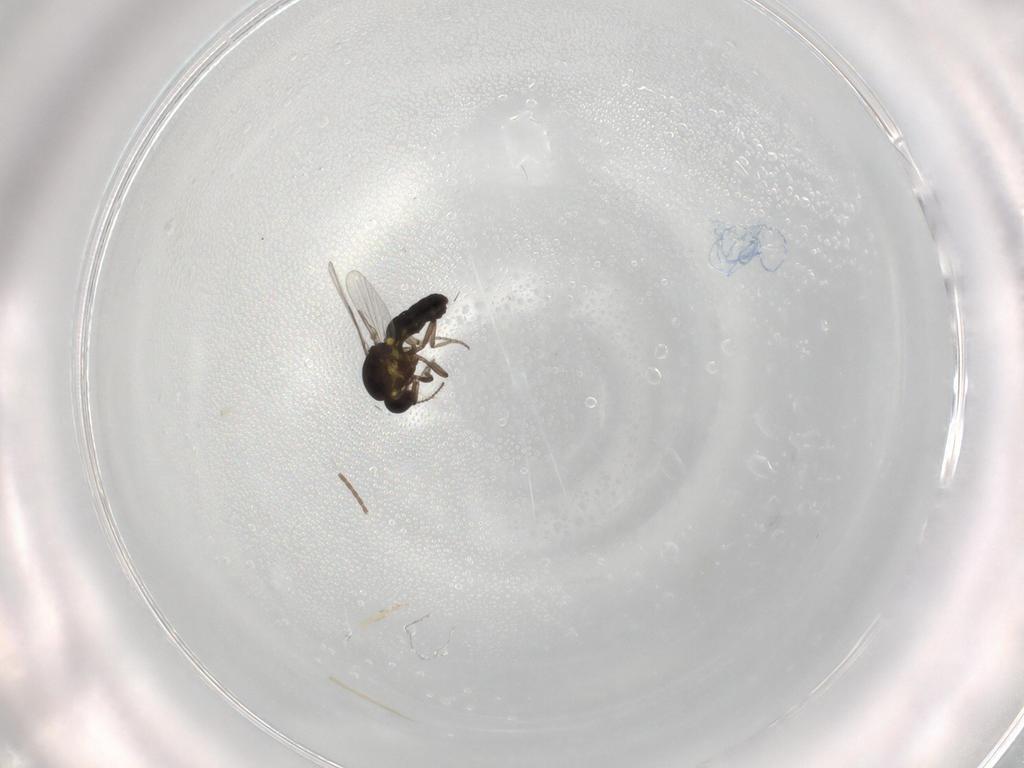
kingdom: Animalia
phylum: Arthropoda
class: Insecta
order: Diptera
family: Ceratopogonidae
